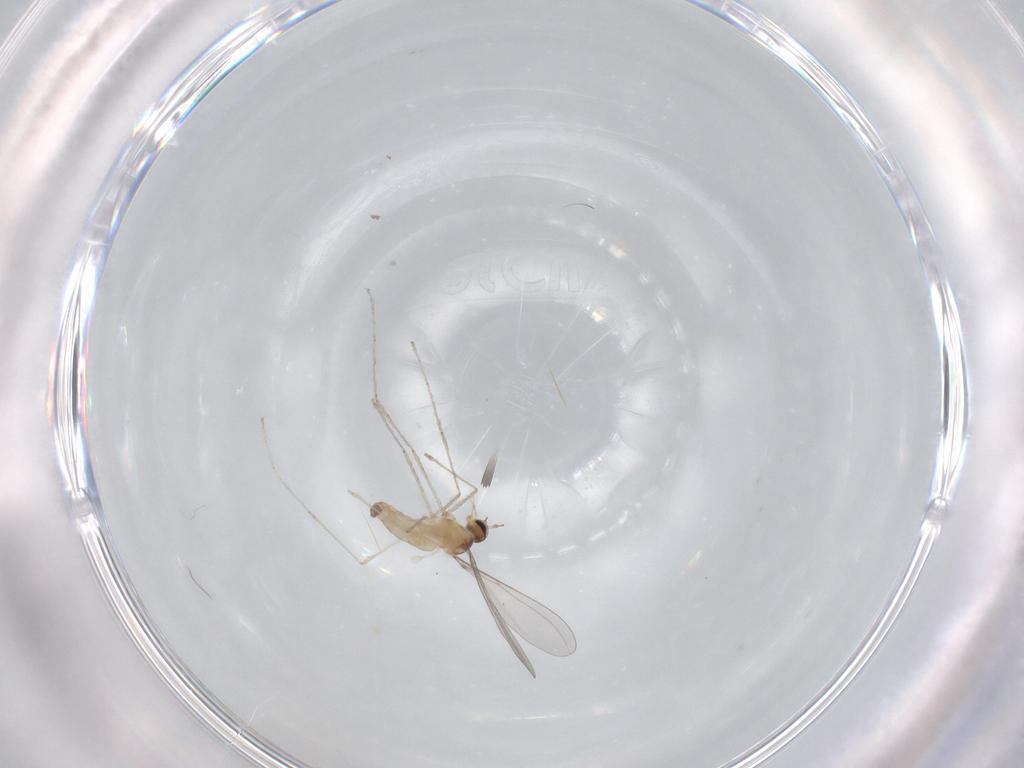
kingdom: Animalia
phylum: Arthropoda
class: Insecta
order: Diptera
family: Cecidomyiidae
